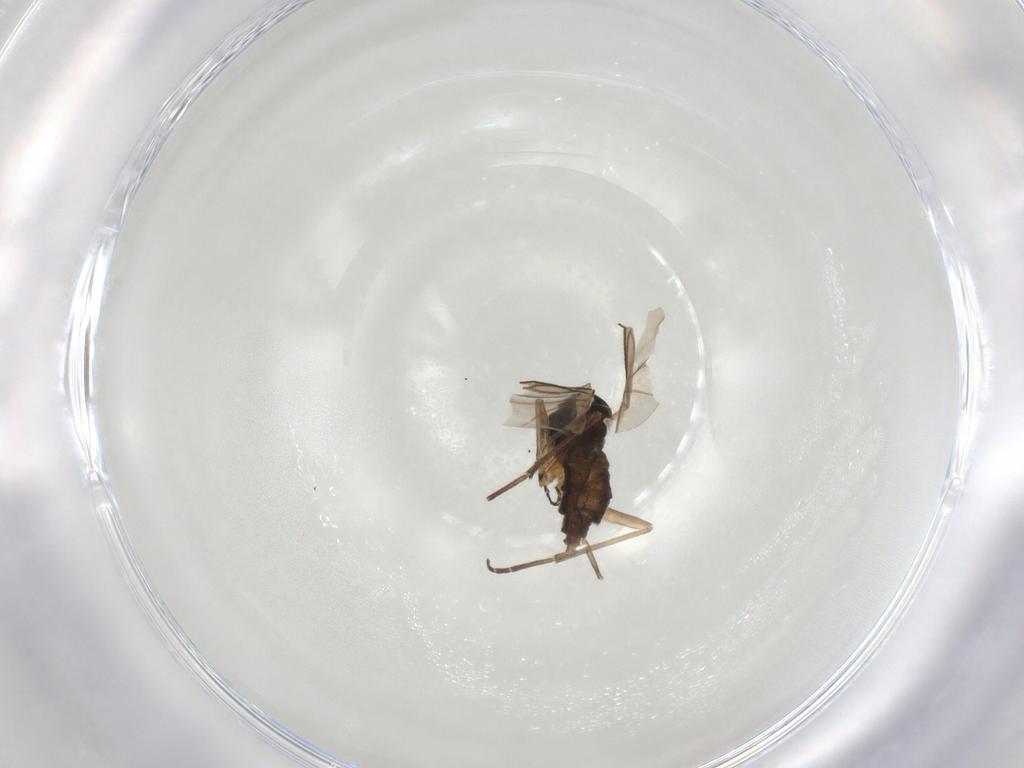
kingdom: Animalia
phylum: Arthropoda
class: Insecta
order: Diptera
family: Sciaridae
